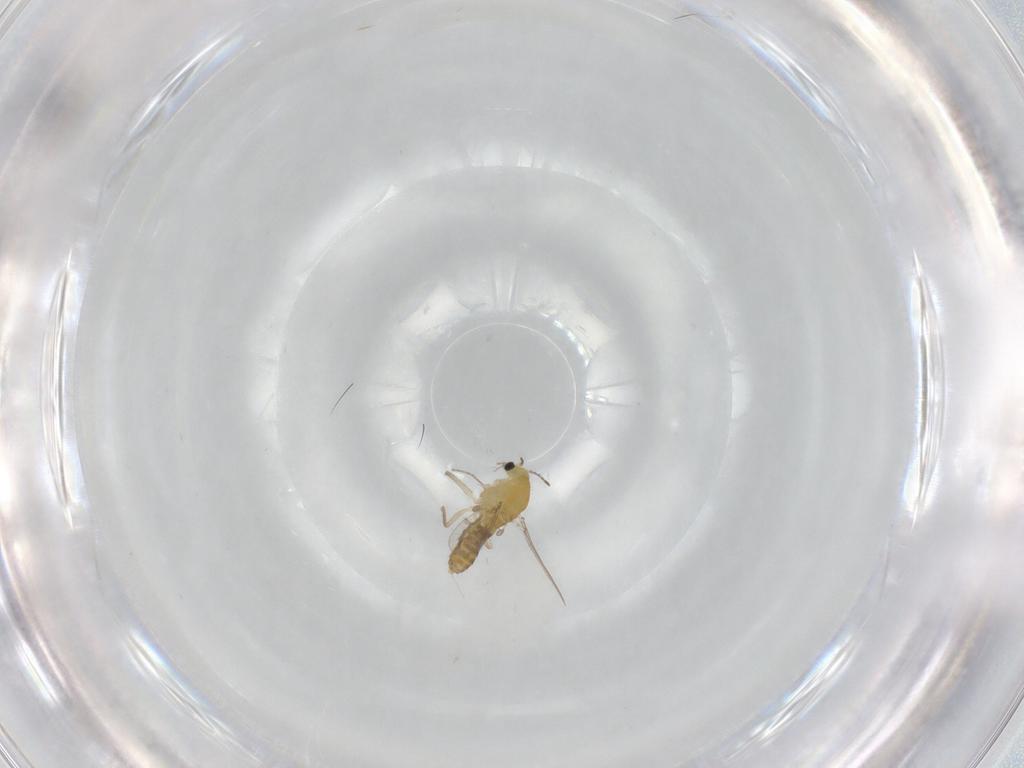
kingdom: Animalia
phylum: Arthropoda
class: Insecta
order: Diptera
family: Chironomidae
